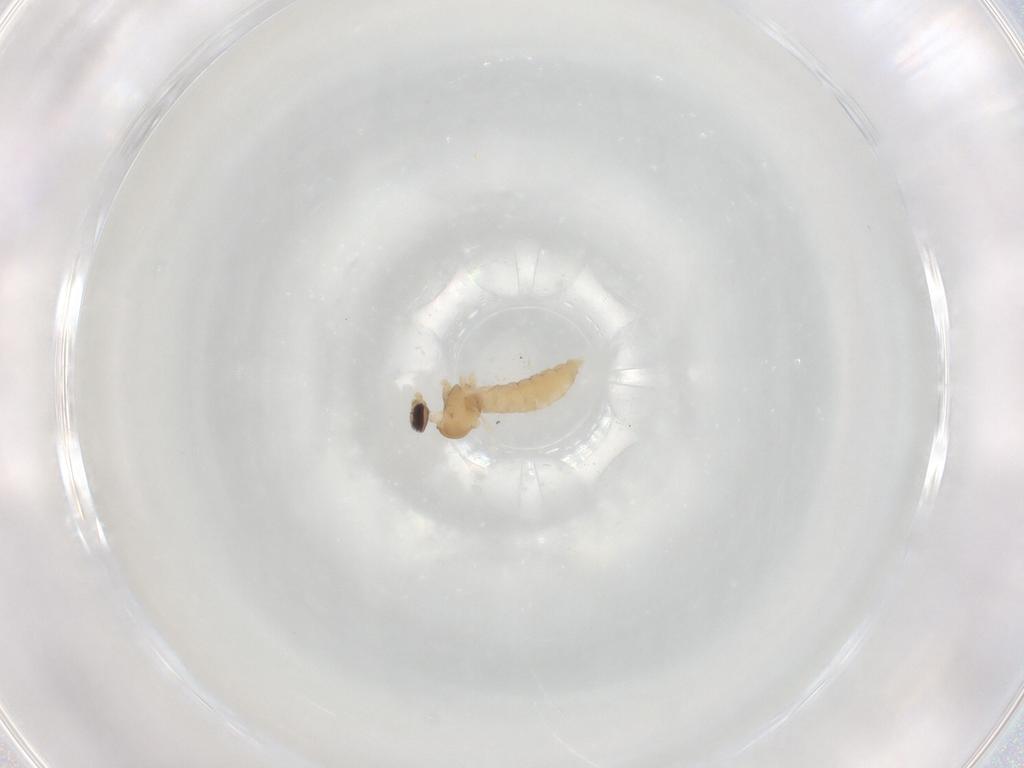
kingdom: Animalia
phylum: Arthropoda
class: Insecta
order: Diptera
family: Cecidomyiidae
